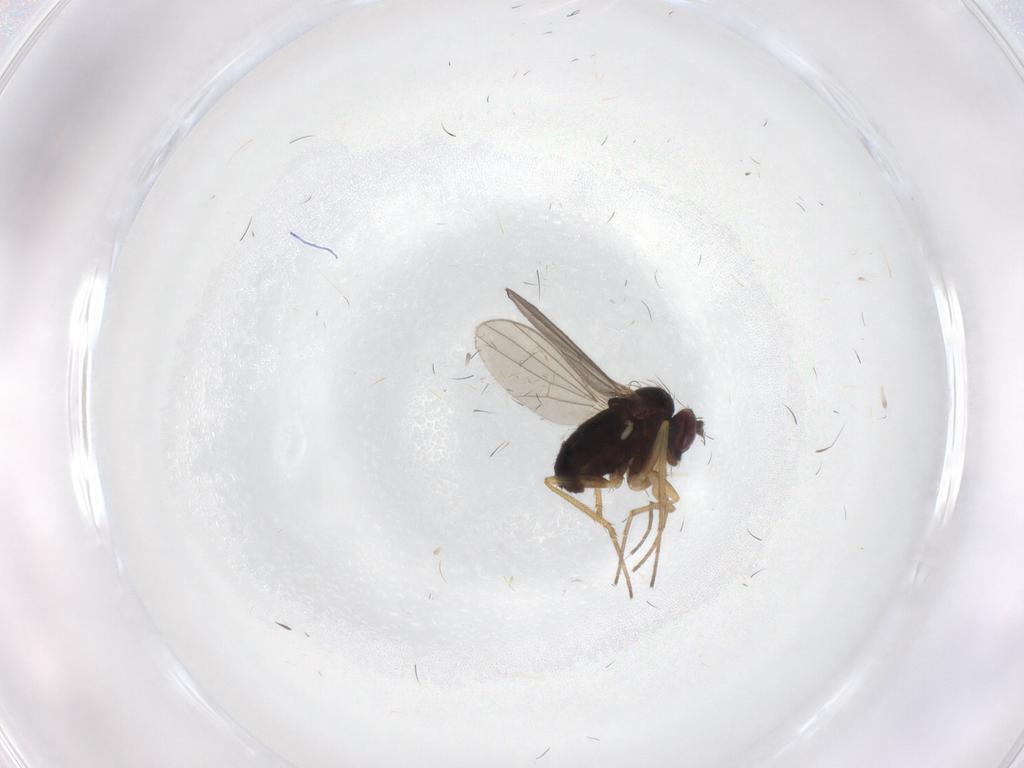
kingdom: Animalia
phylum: Arthropoda
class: Insecta
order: Diptera
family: Dolichopodidae
